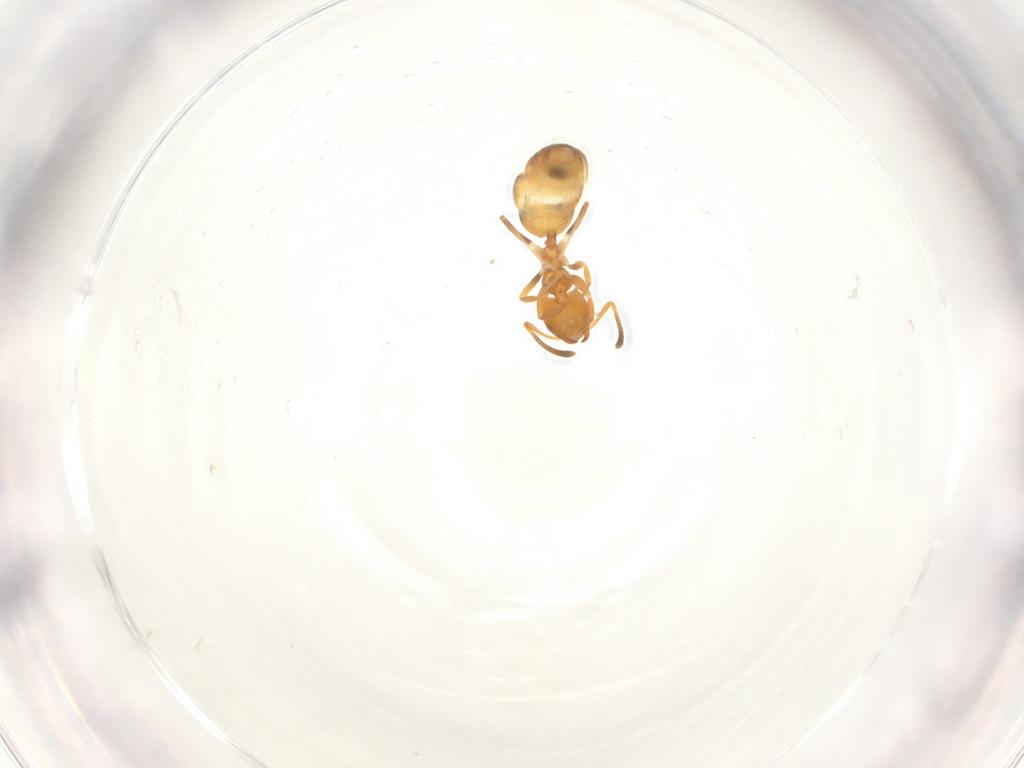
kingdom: Animalia
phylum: Arthropoda
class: Insecta
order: Hymenoptera
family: Formicidae
